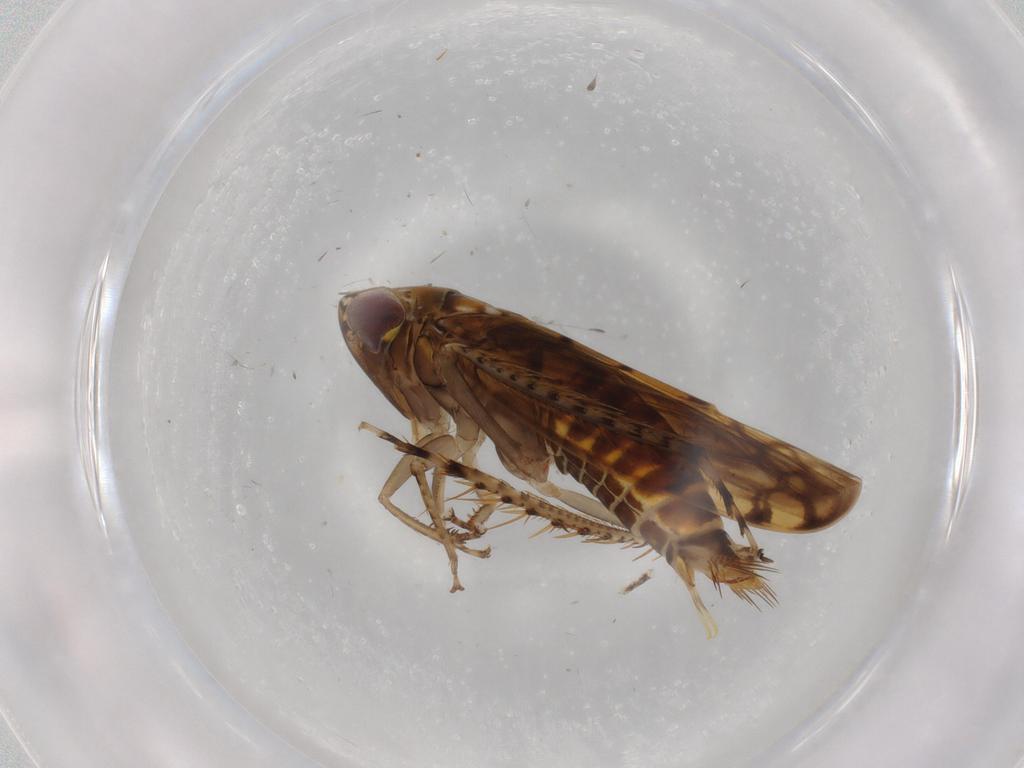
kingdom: Animalia
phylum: Arthropoda
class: Insecta
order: Hemiptera
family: Cicadellidae
